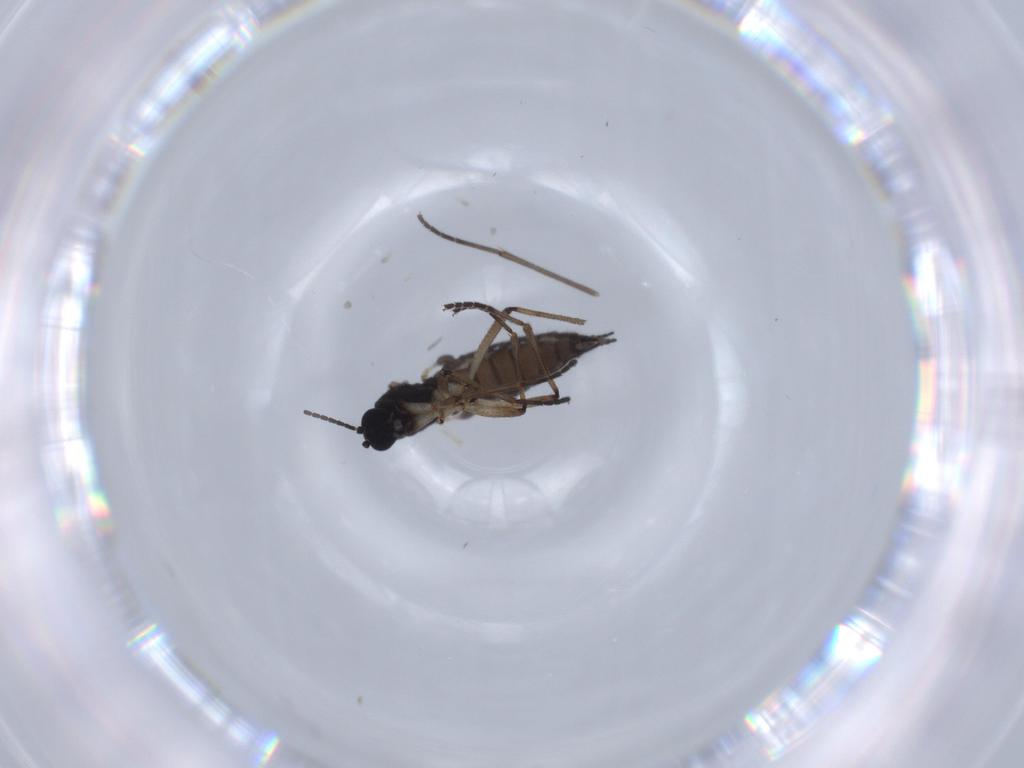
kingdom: Animalia
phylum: Arthropoda
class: Insecta
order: Diptera
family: Sciaridae
